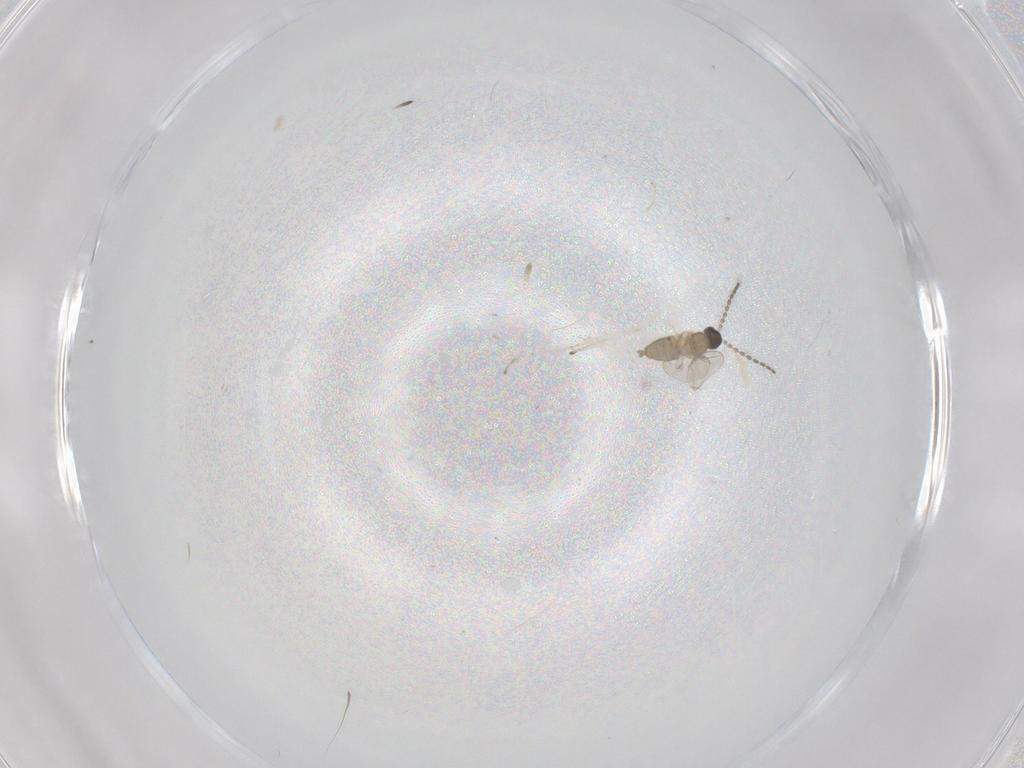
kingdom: Animalia
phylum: Arthropoda
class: Insecta
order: Diptera
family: Cecidomyiidae
